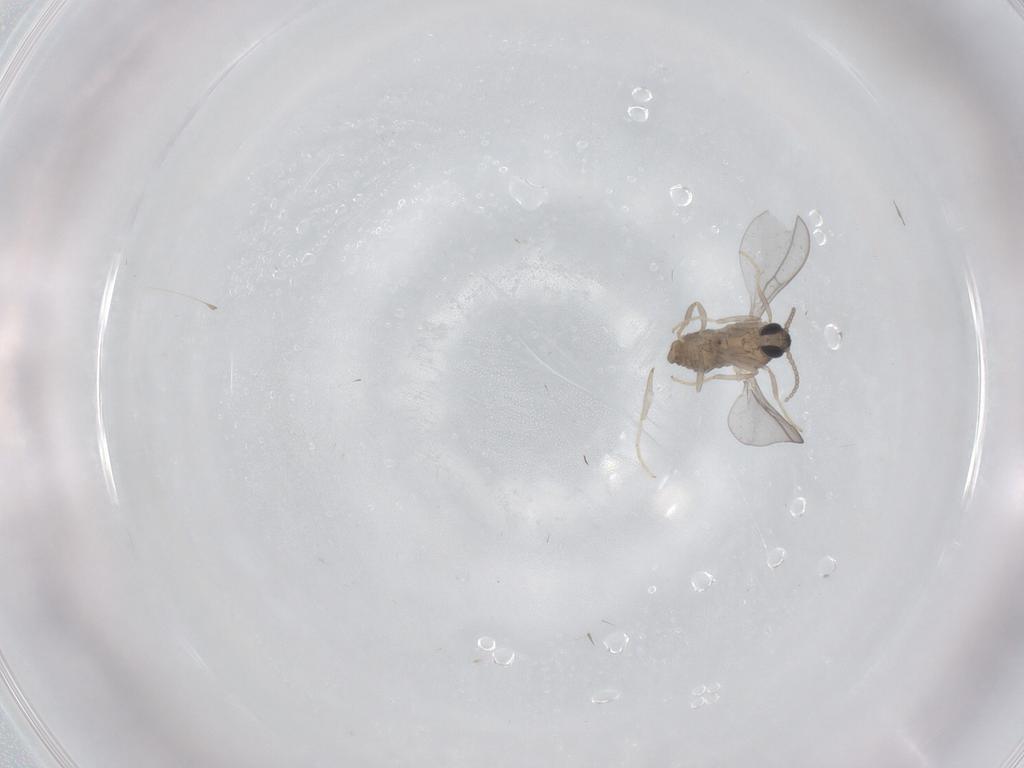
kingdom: Animalia
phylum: Arthropoda
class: Insecta
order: Diptera
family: Cecidomyiidae
